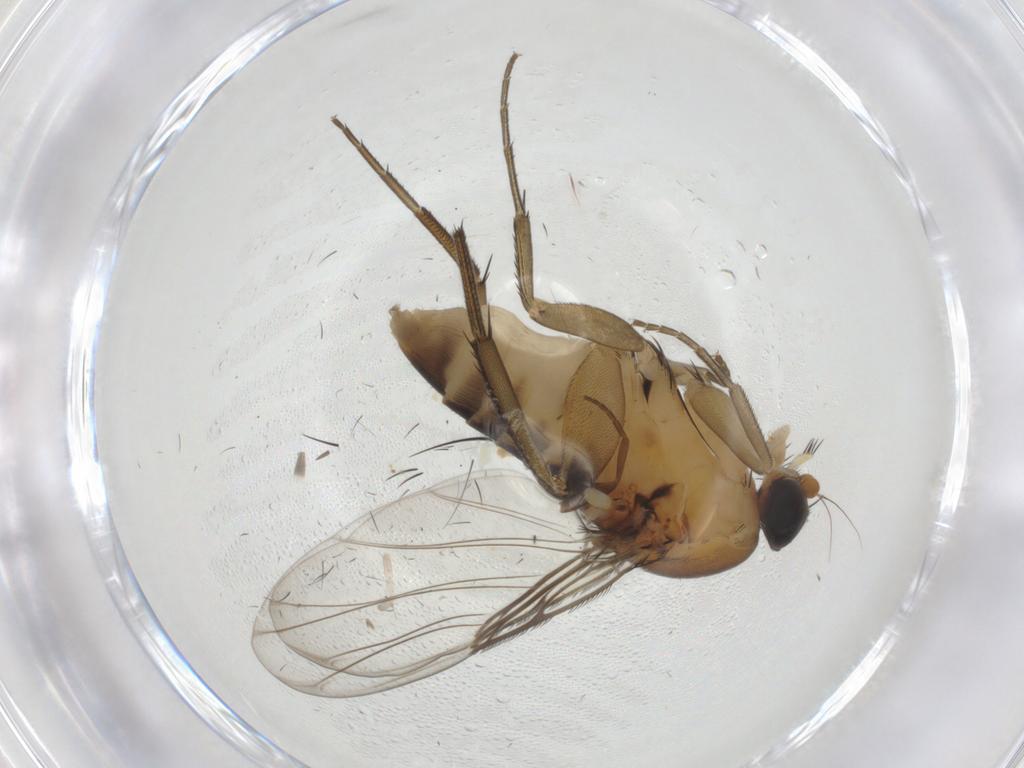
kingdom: Animalia
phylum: Arthropoda
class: Insecta
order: Diptera
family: Phoridae
